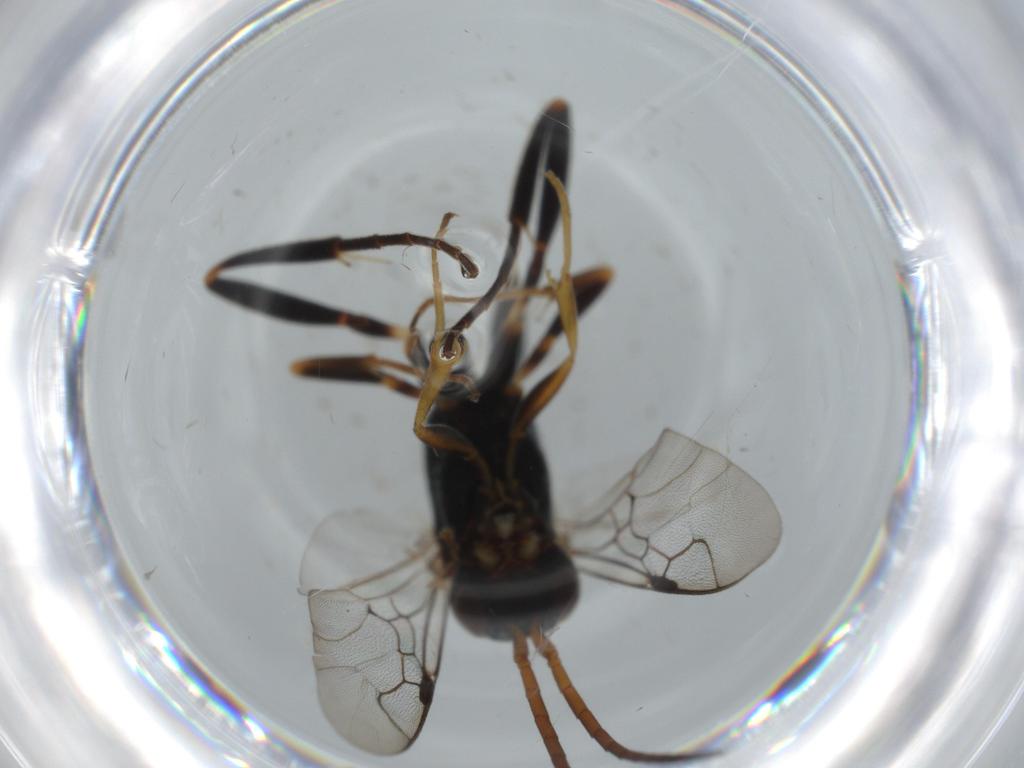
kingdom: Animalia
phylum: Arthropoda
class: Insecta
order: Hymenoptera
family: Evaniidae
